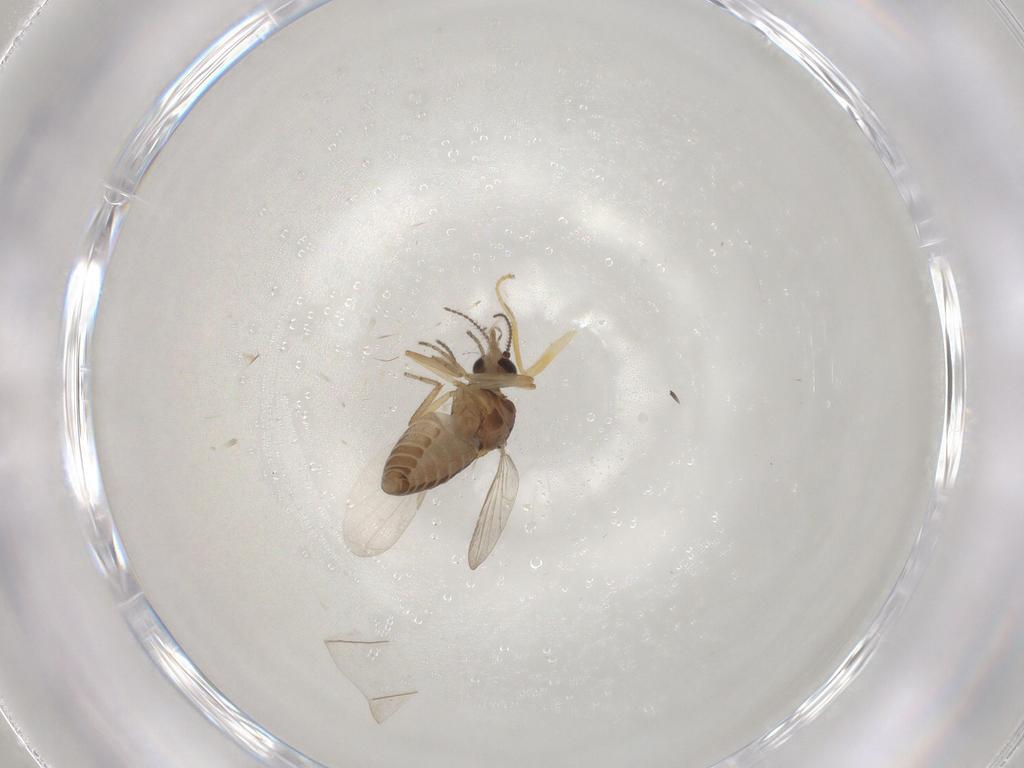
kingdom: Animalia
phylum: Arthropoda
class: Insecta
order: Diptera
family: Ceratopogonidae
